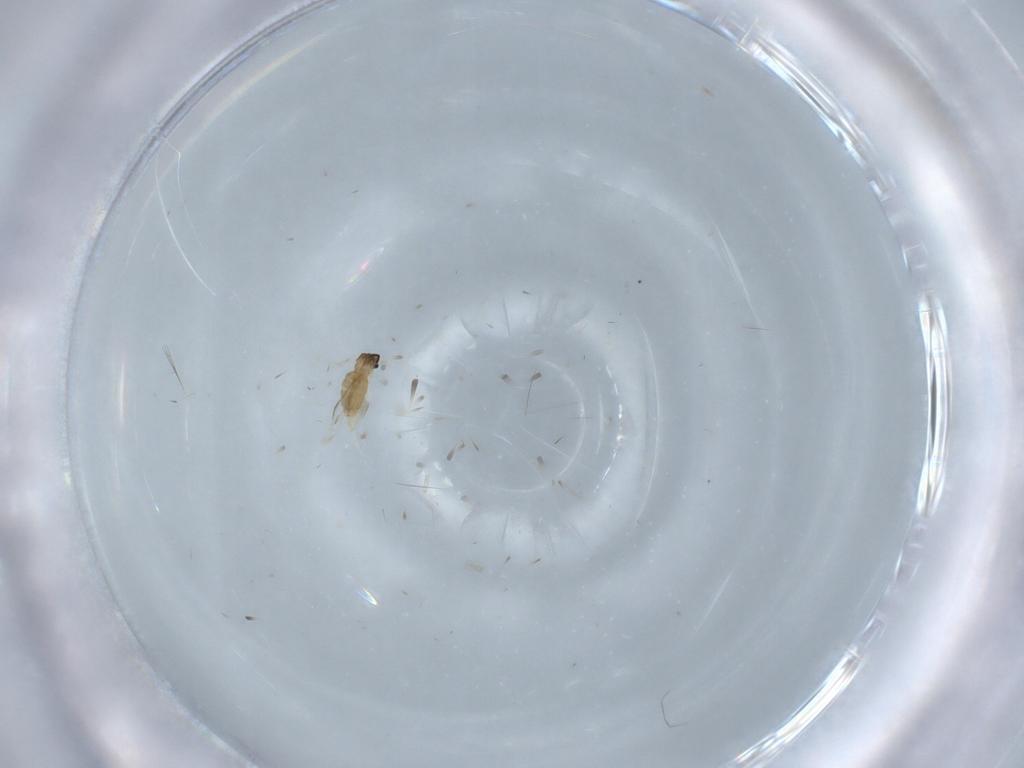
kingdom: Animalia
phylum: Arthropoda
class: Insecta
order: Diptera
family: Cecidomyiidae
